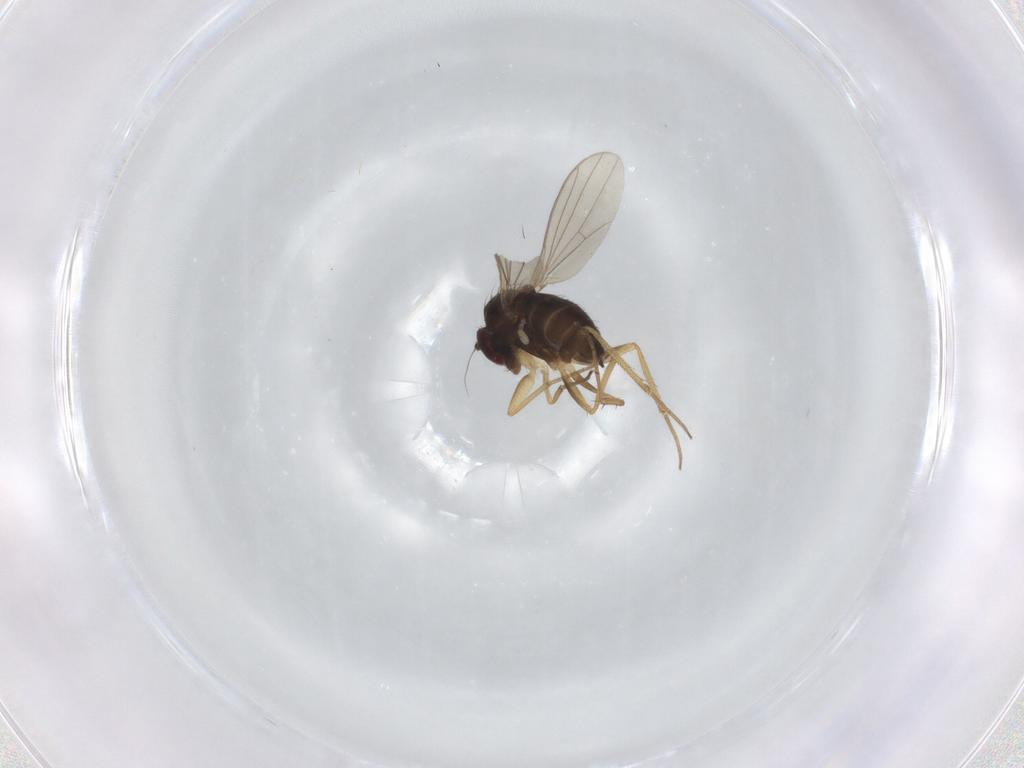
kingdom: Animalia
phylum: Arthropoda
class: Insecta
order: Diptera
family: Dolichopodidae
